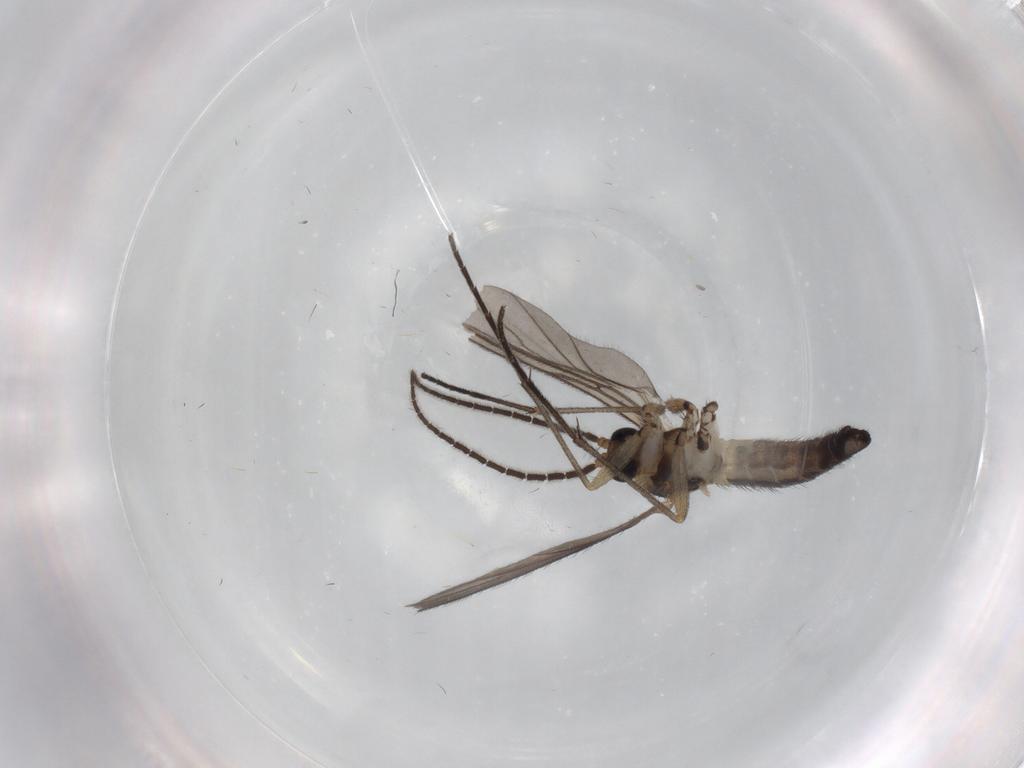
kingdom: Animalia
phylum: Arthropoda
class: Insecta
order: Diptera
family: Sciaridae
